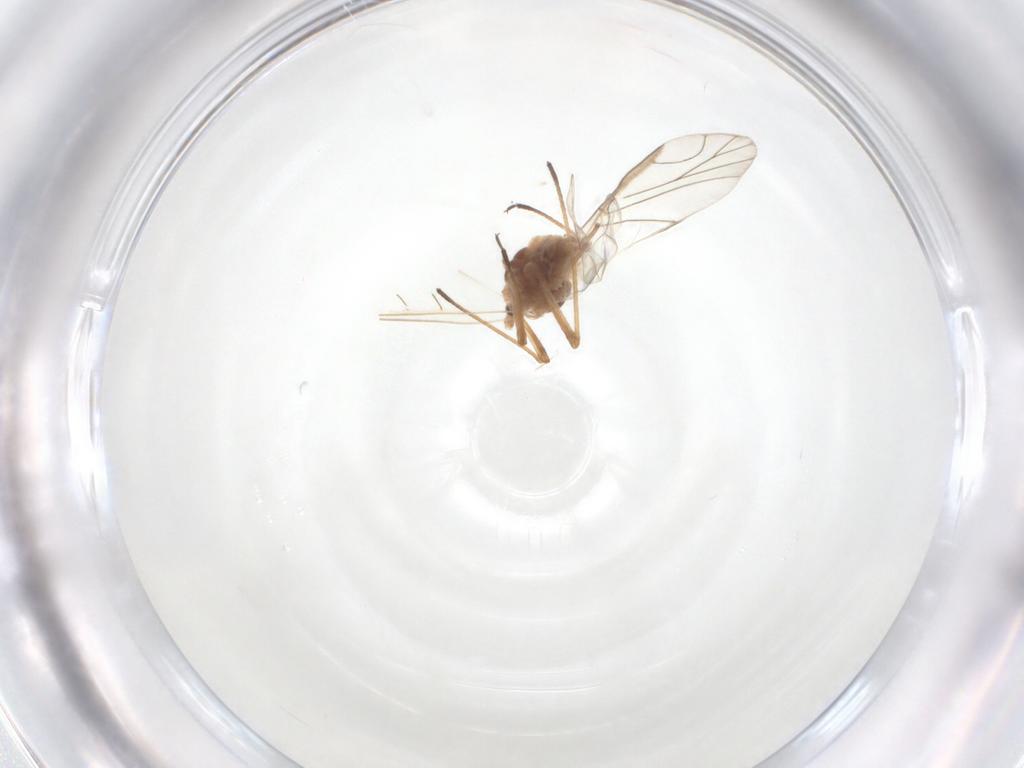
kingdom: Animalia
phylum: Arthropoda
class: Insecta
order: Hemiptera
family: Aphididae
